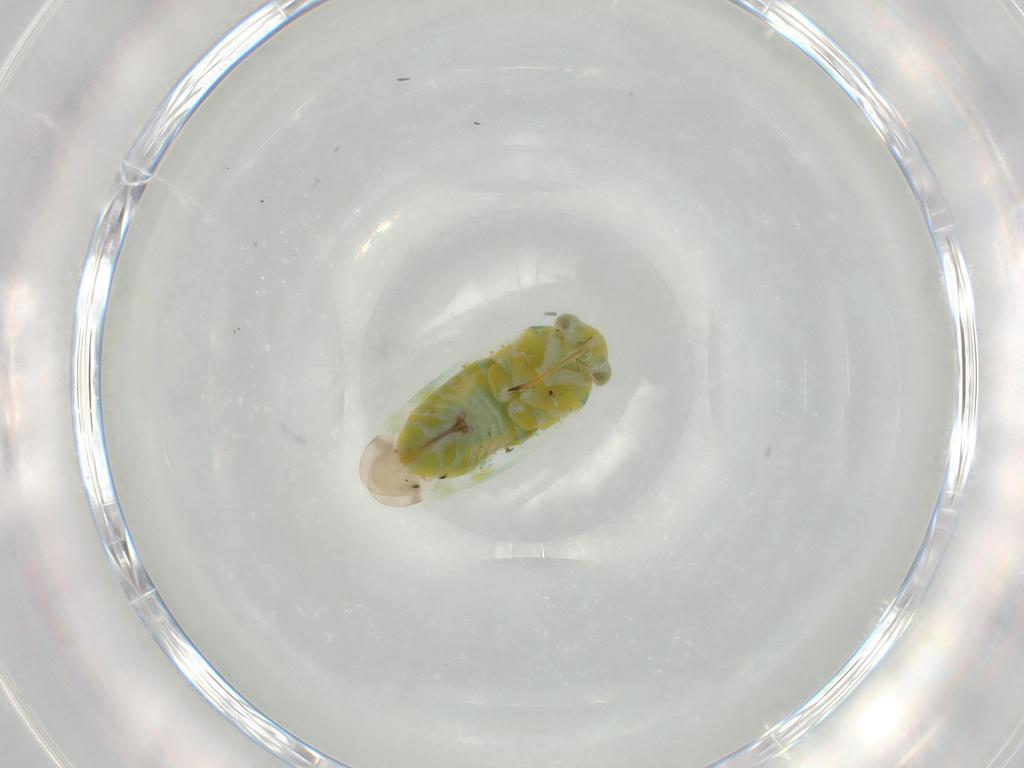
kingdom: Animalia
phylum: Arthropoda
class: Insecta
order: Hemiptera
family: Miridae
